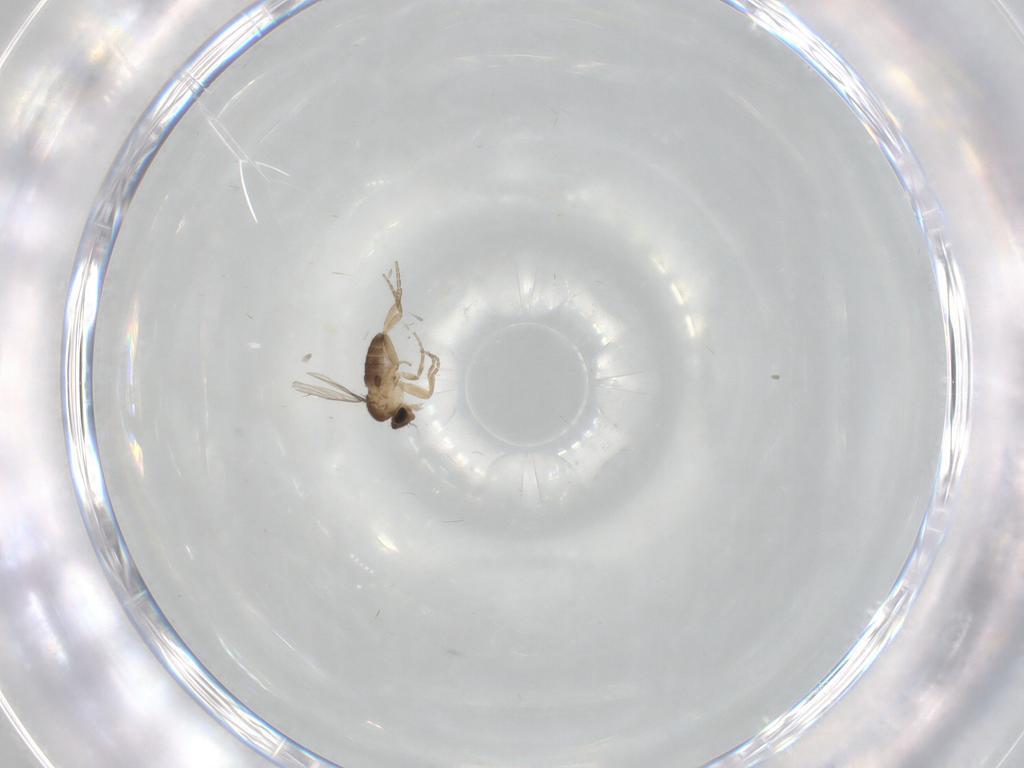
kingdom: Animalia
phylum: Arthropoda
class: Insecta
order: Diptera
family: Phoridae
